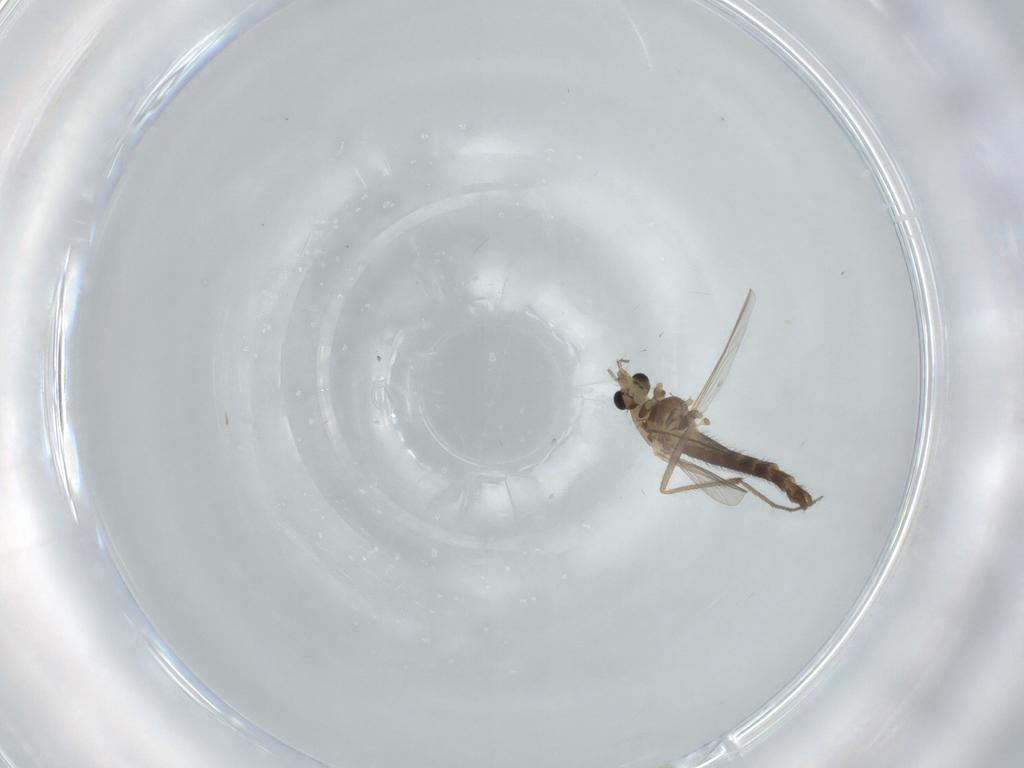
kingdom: Animalia
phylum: Arthropoda
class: Insecta
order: Diptera
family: Chironomidae
